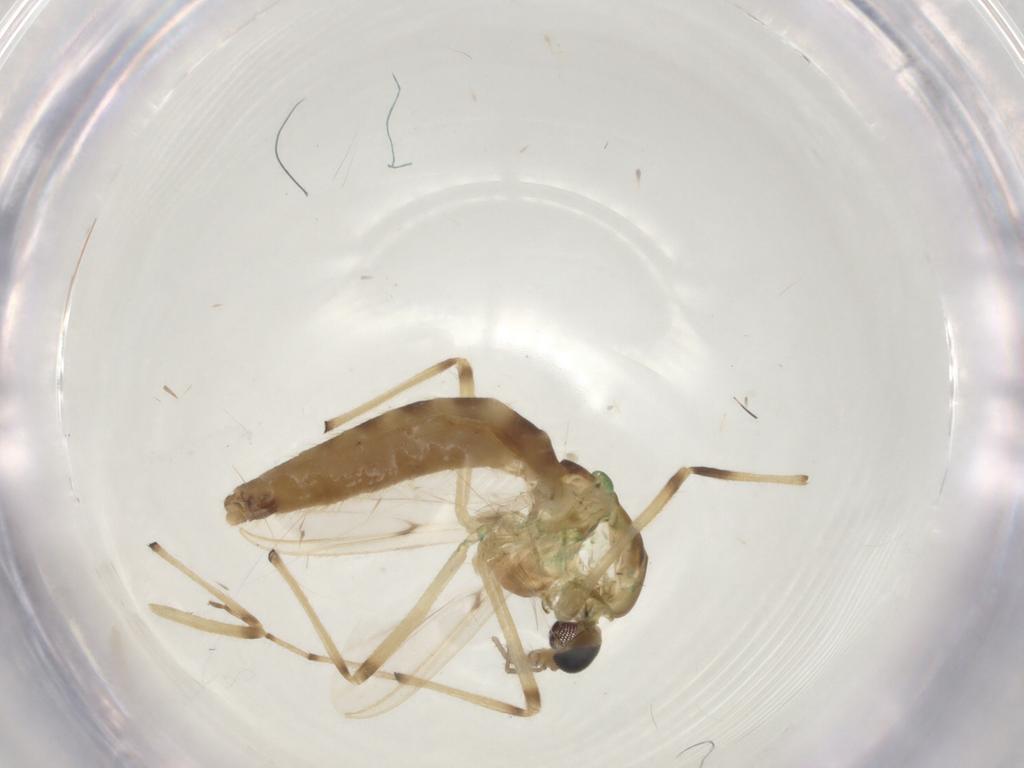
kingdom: Animalia
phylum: Arthropoda
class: Insecta
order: Diptera
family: Chironomidae
